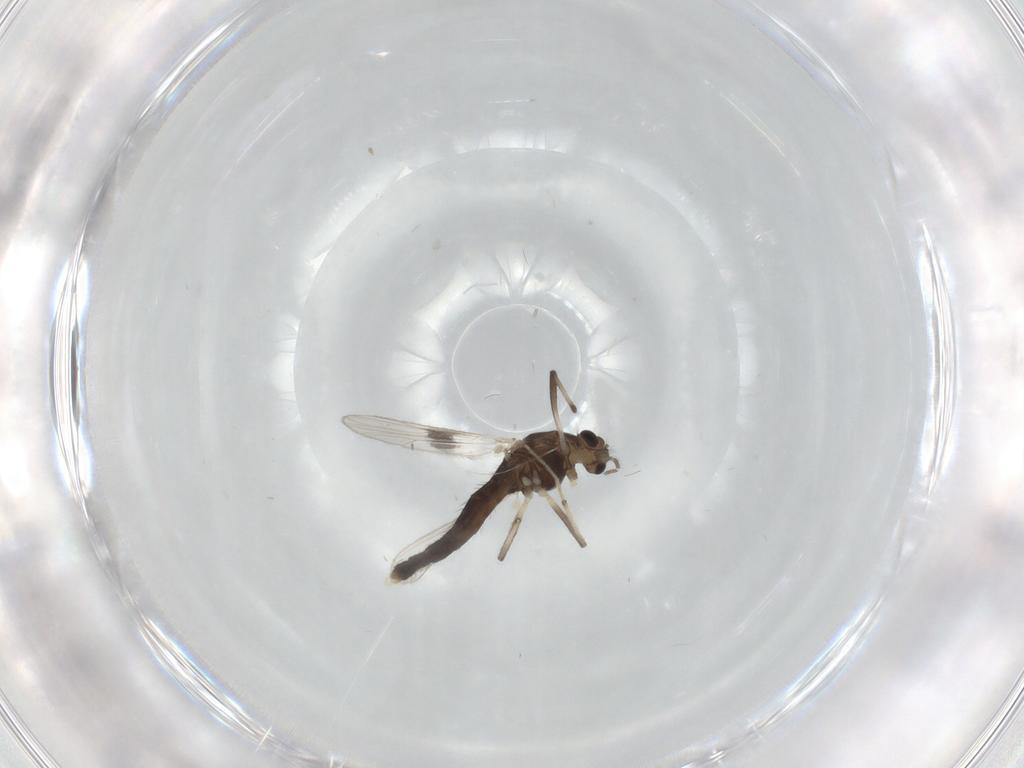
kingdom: Animalia
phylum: Arthropoda
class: Insecta
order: Diptera
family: Chironomidae
